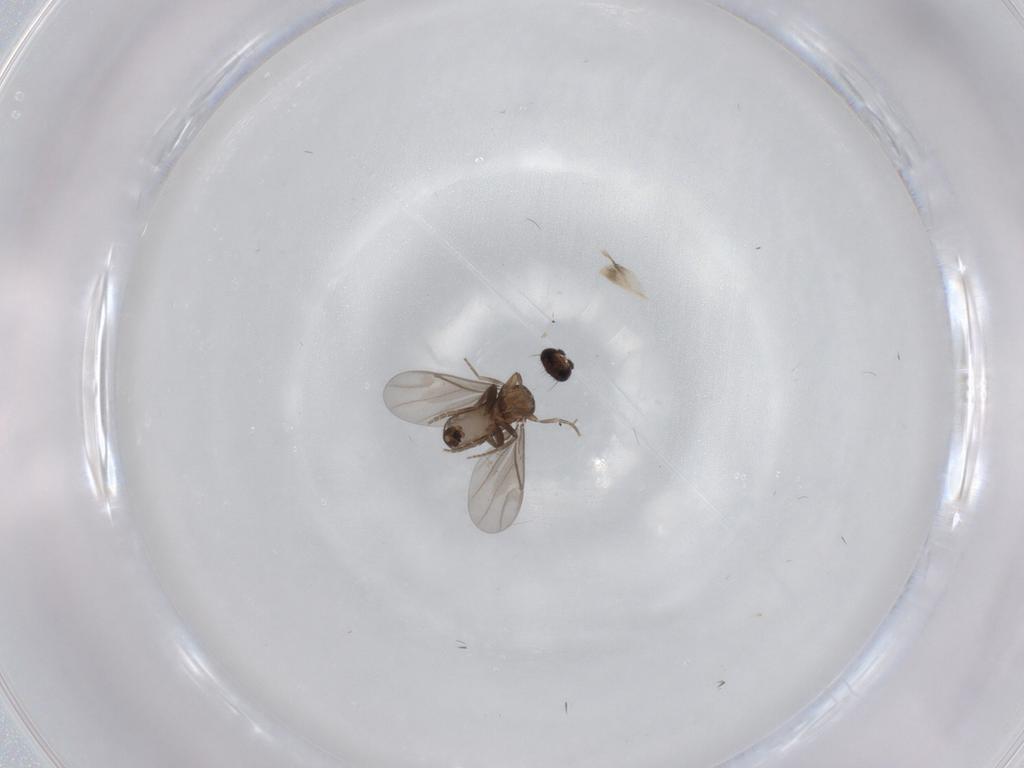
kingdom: Animalia
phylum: Arthropoda
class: Insecta
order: Diptera
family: Chironomidae
